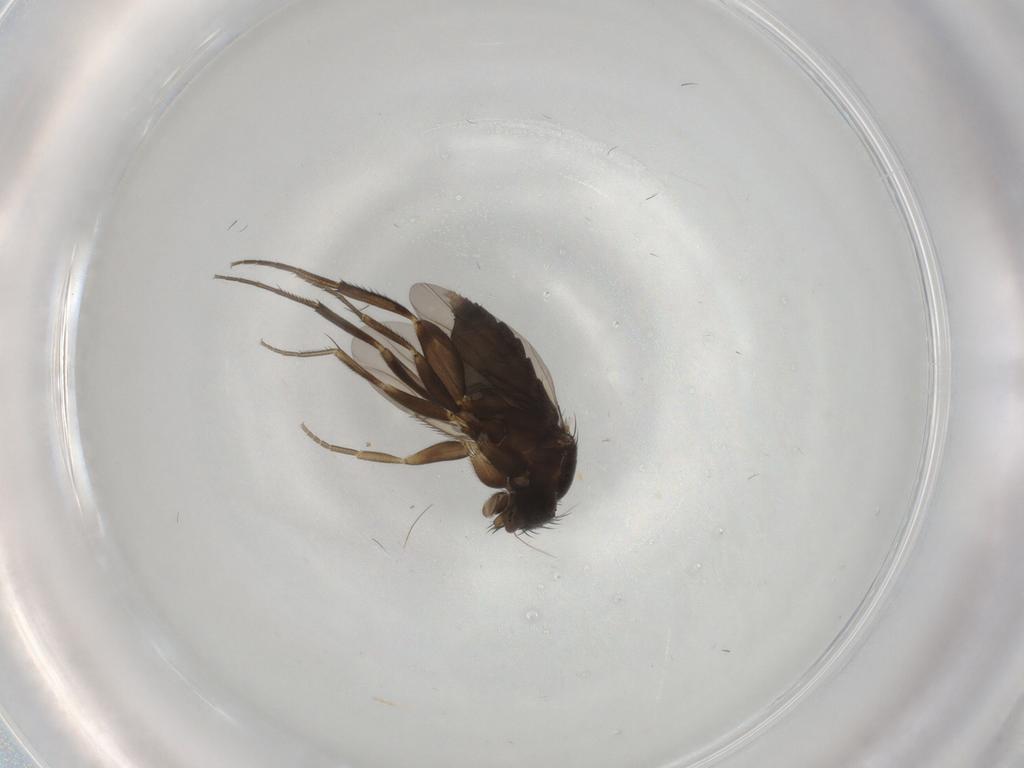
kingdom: Animalia
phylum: Arthropoda
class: Insecta
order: Diptera
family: Phoridae
